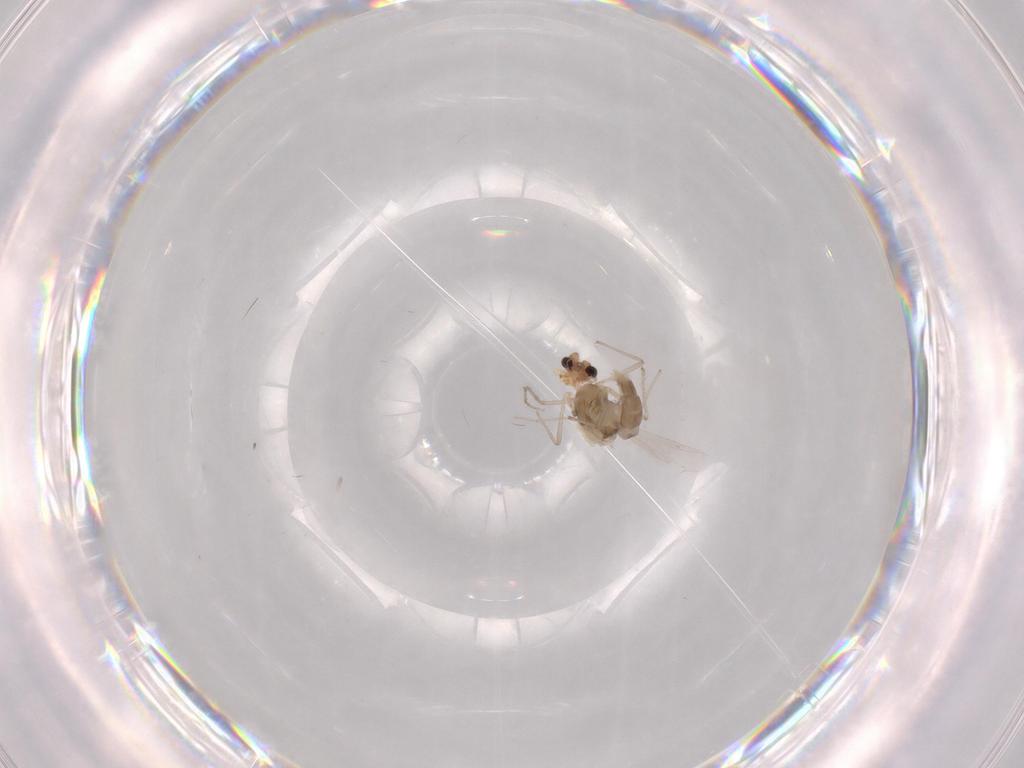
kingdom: Animalia
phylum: Arthropoda
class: Insecta
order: Diptera
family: Chironomidae
